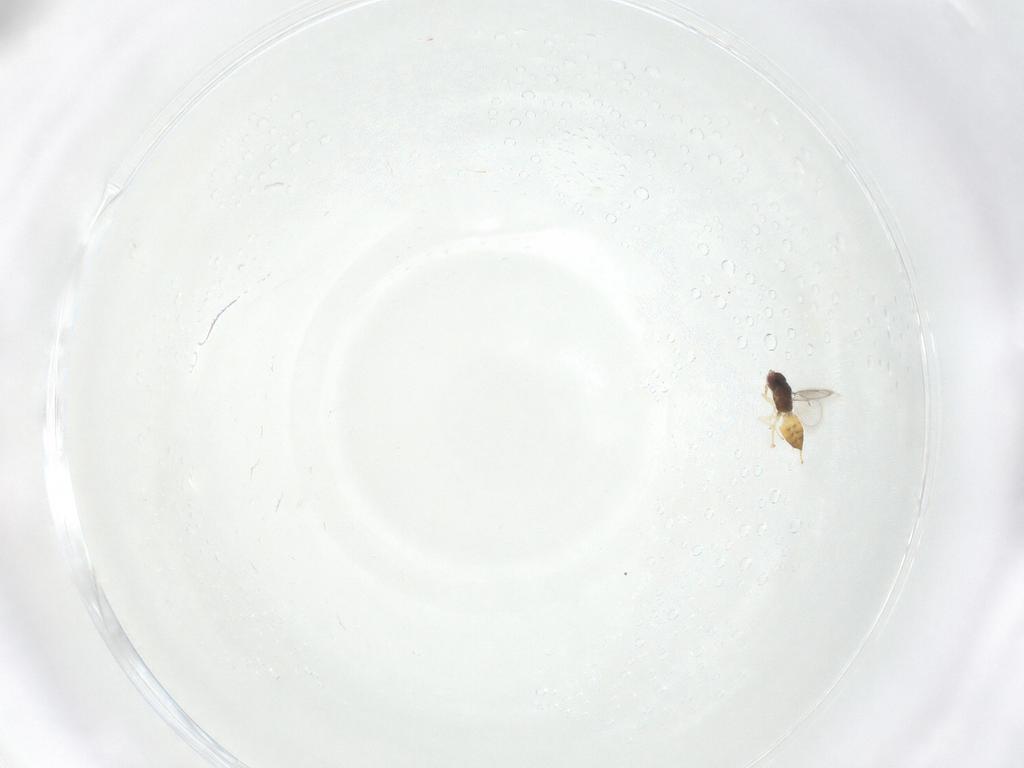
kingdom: Animalia
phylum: Arthropoda
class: Insecta
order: Hymenoptera
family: Eulophidae
